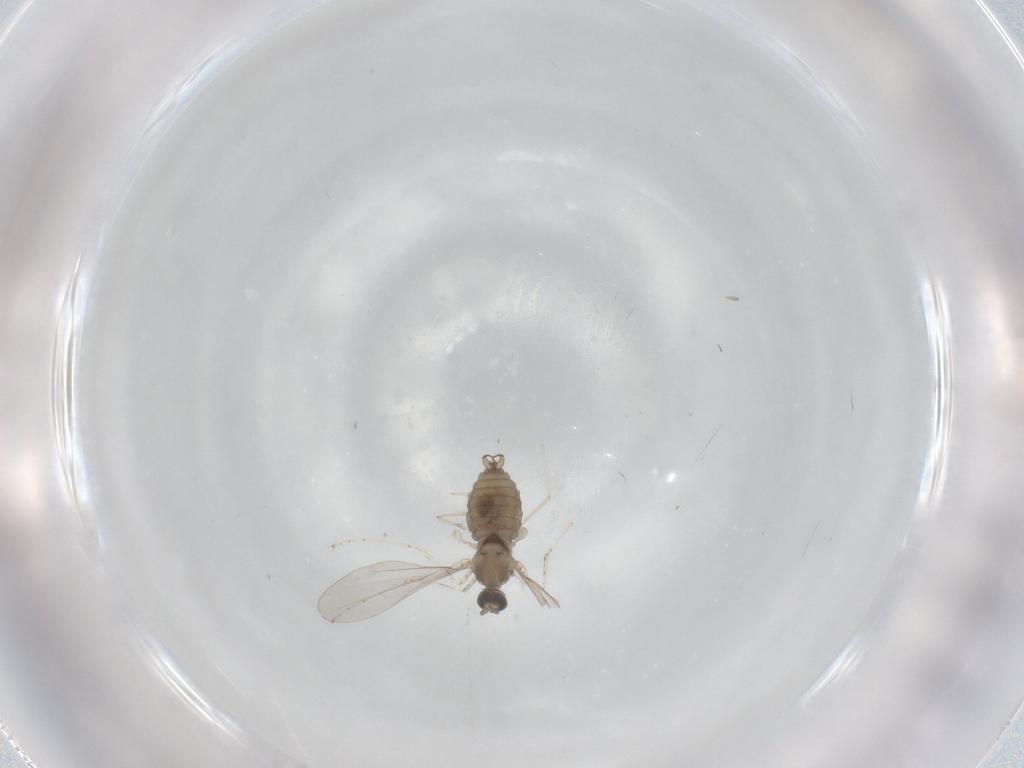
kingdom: Animalia
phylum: Arthropoda
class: Insecta
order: Diptera
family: Cecidomyiidae
